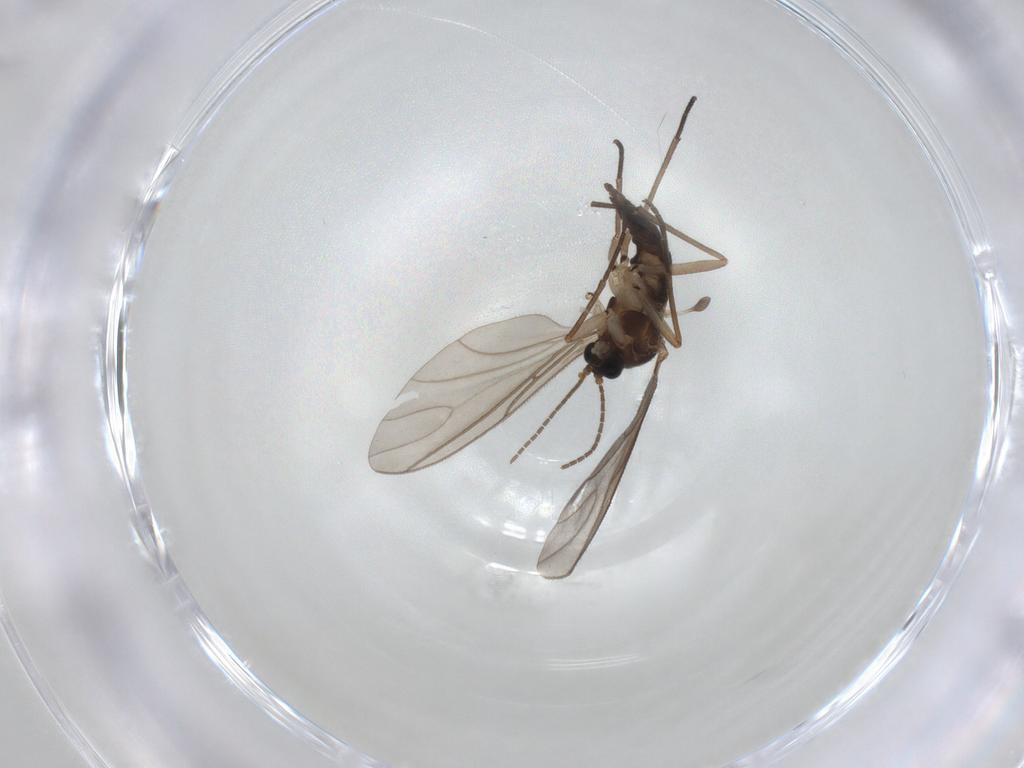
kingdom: Animalia
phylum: Arthropoda
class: Insecta
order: Diptera
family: Sciaridae
